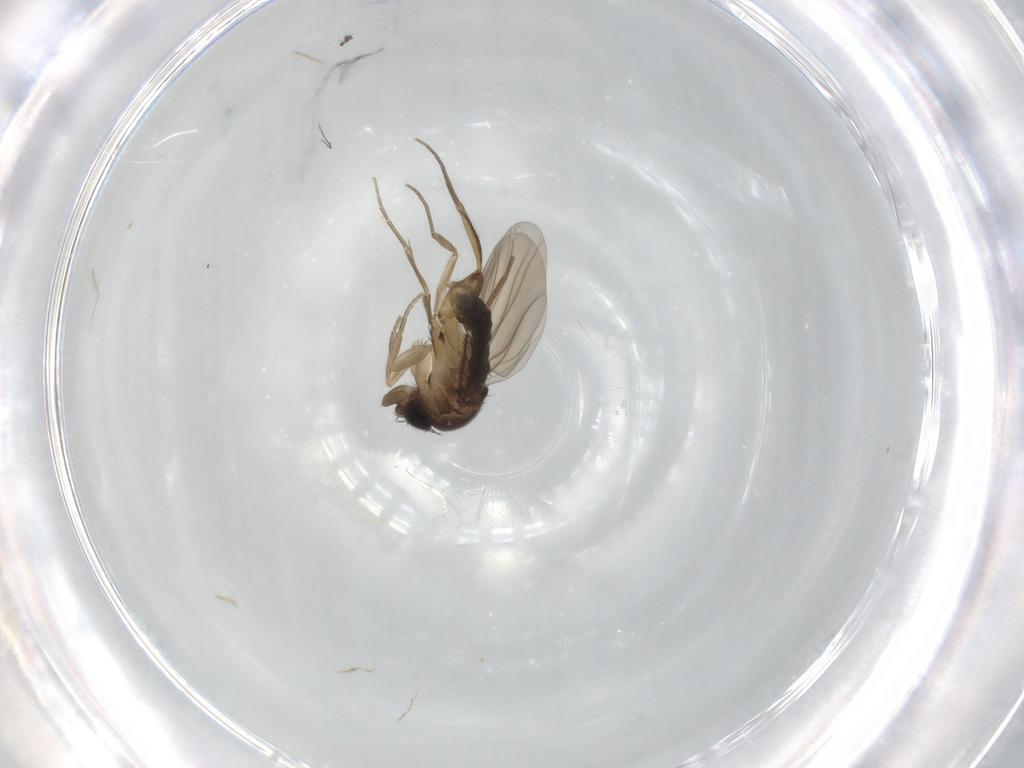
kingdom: Animalia
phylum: Arthropoda
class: Insecta
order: Diptera
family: Phoridae
